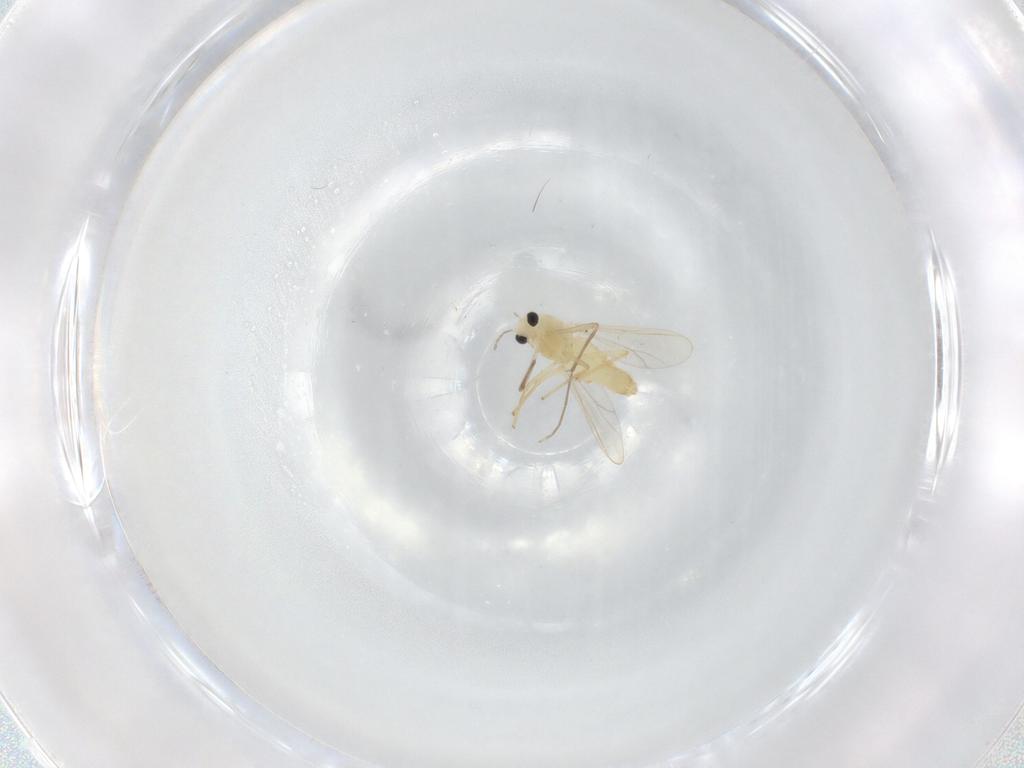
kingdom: Animalia
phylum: Arthropoda
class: Insecta
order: Diptera
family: Chironomidae
